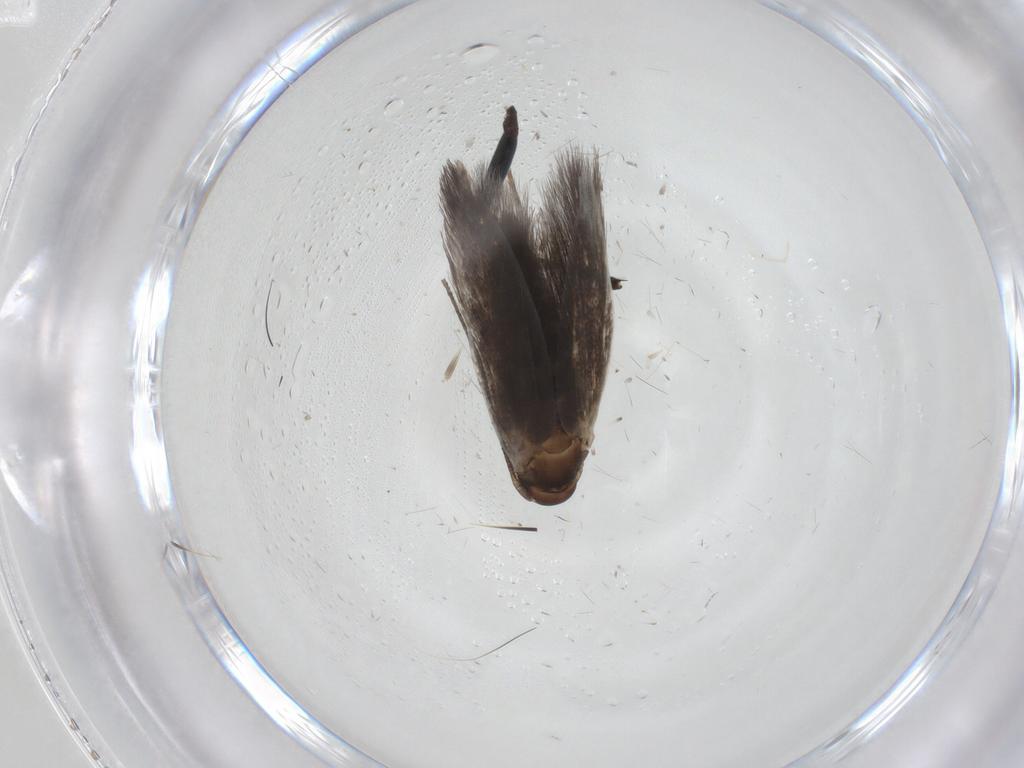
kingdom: Animalia
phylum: Arthropoda
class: Insecta
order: Lepidoptera
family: Elachistidae
